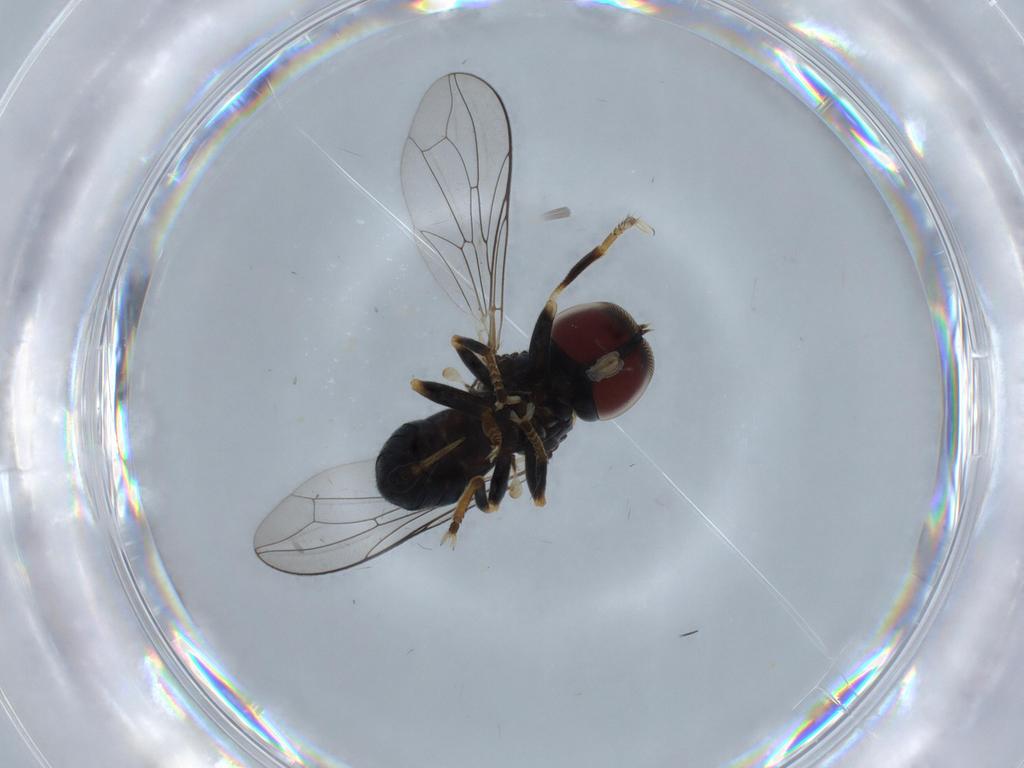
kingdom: Animalia
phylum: Arthropoda
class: Insecta
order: Diptera
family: Pipunculidae
